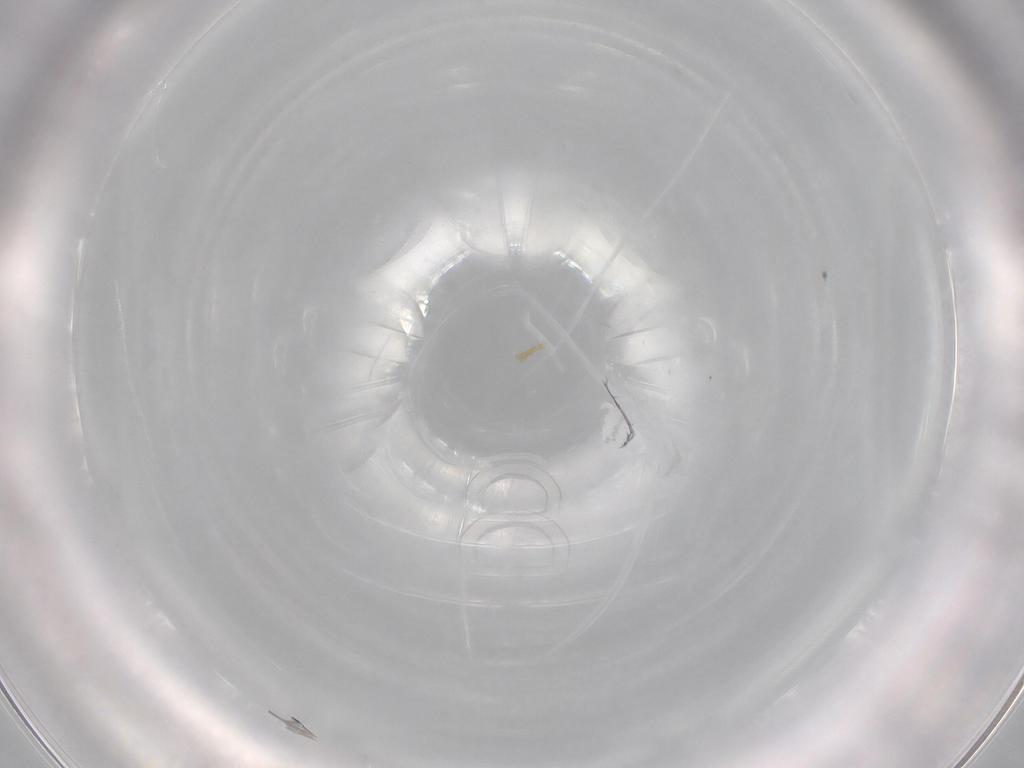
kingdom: Animalia
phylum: Arthropoda
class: Insecta
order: Diptera
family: Cecidomyiidae
